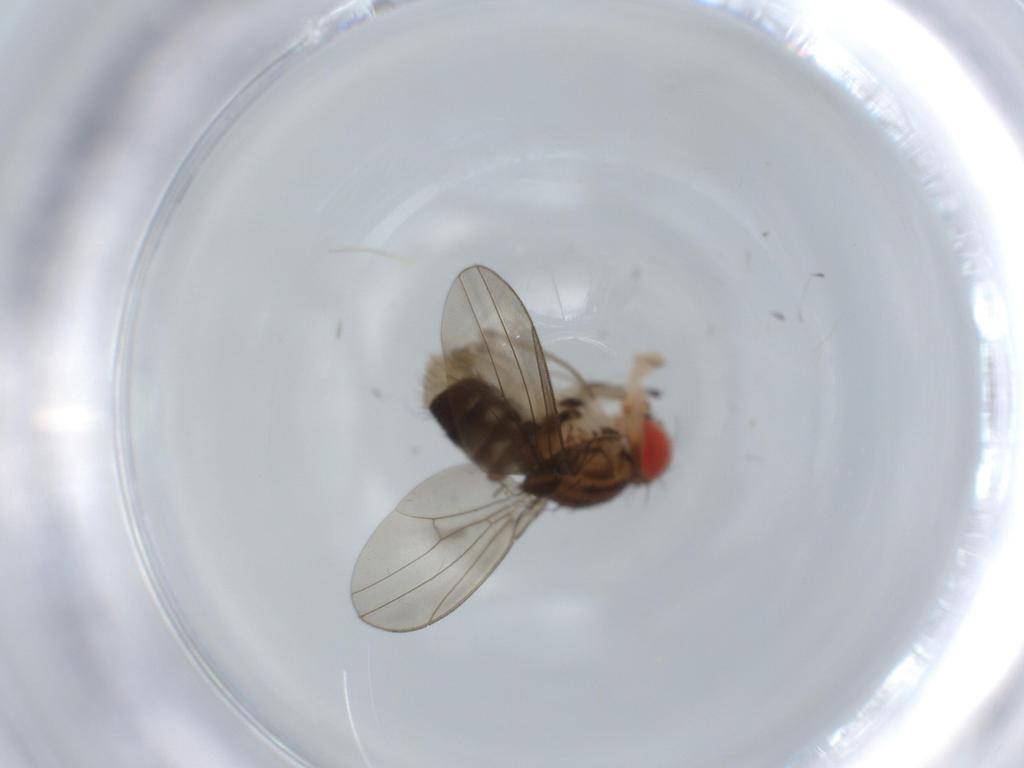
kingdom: Animalia
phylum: Arthropoda
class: Insecta
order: Diptera
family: Drosophilidae
